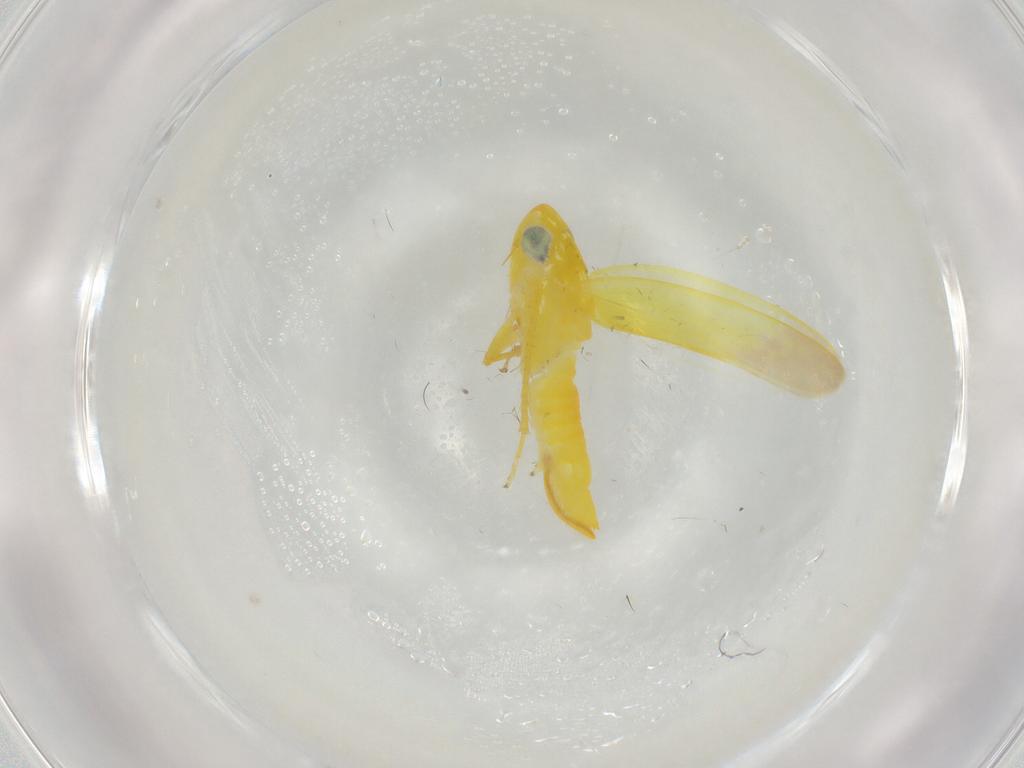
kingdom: Animalia
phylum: Arthropoda
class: Insecta
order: Hemiptera
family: Cicadellidae
